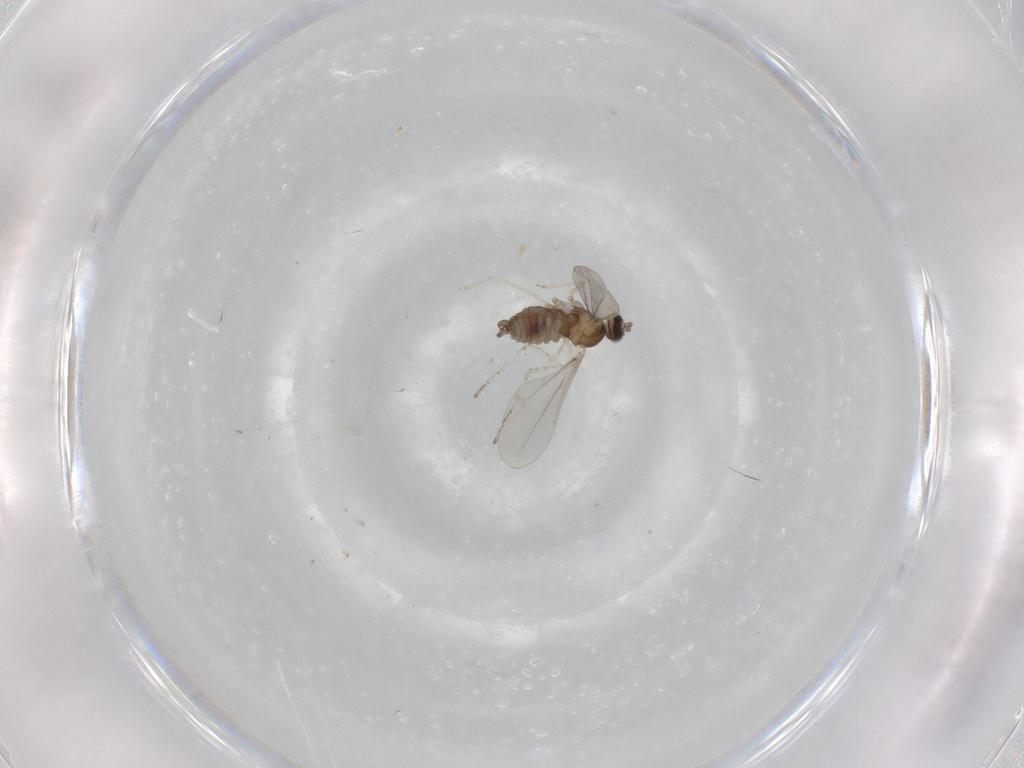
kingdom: Animalia
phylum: Arthropoda
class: Insecta
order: Diptera
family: Cecidomyiidae
